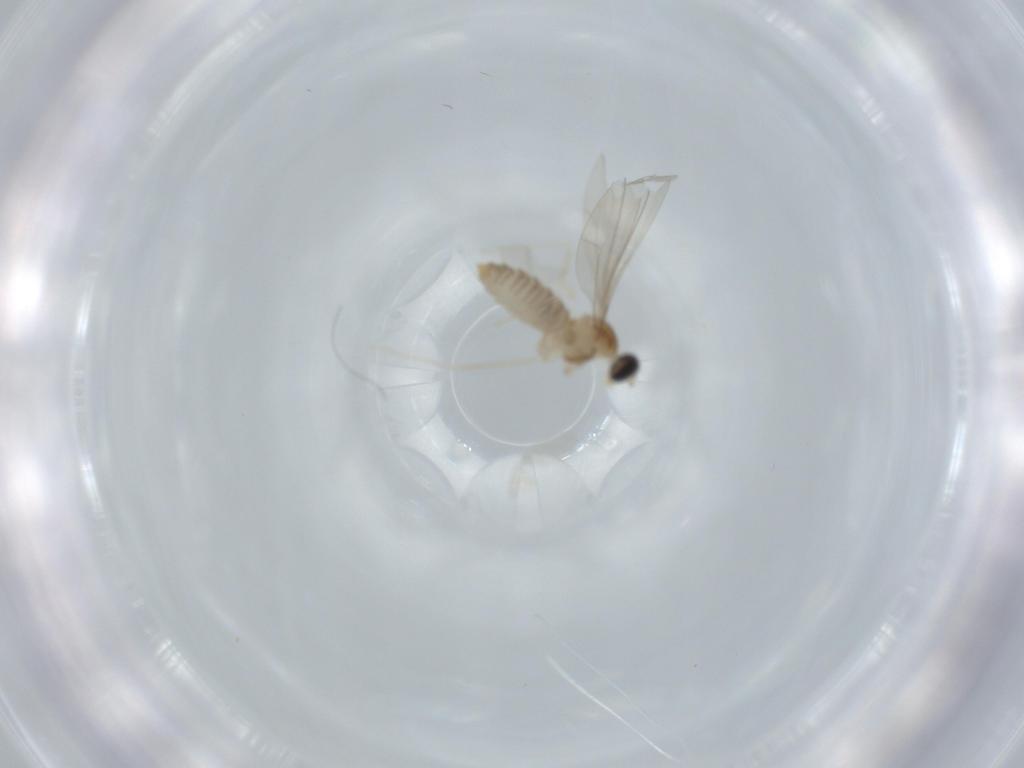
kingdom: Animalia
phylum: Arthropoda
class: Insecta
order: Diptera
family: Cecidomyiidae
